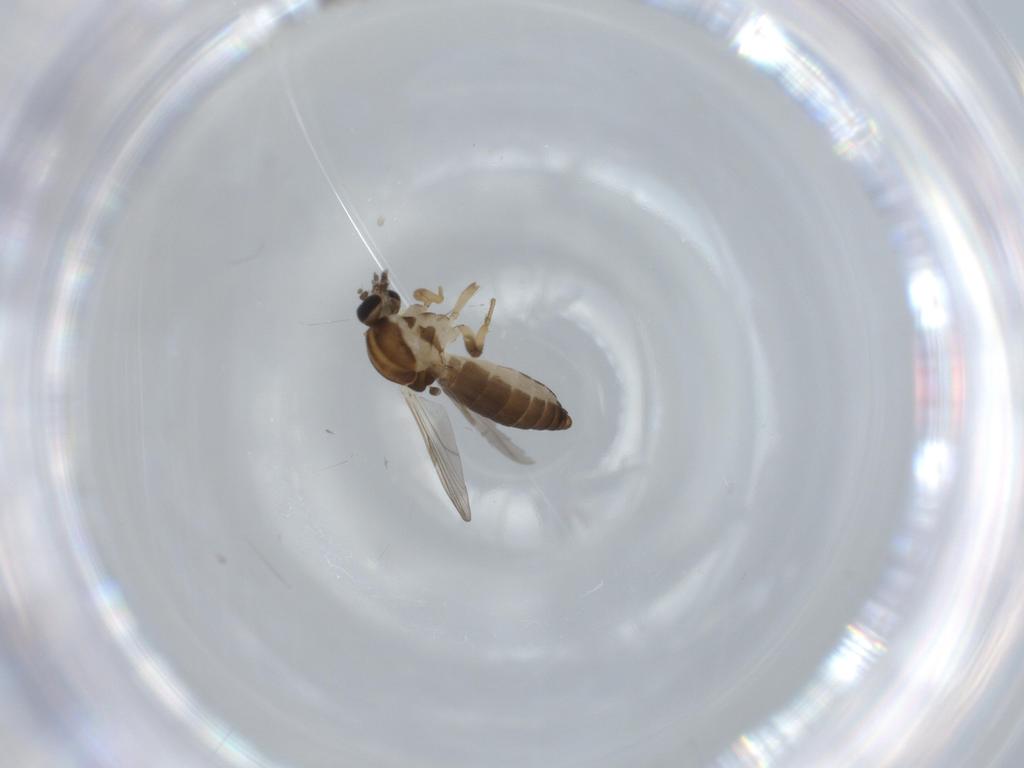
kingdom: Animalia
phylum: Arthropoda
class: Insecta
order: Diptera
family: Ceratopogonidae
